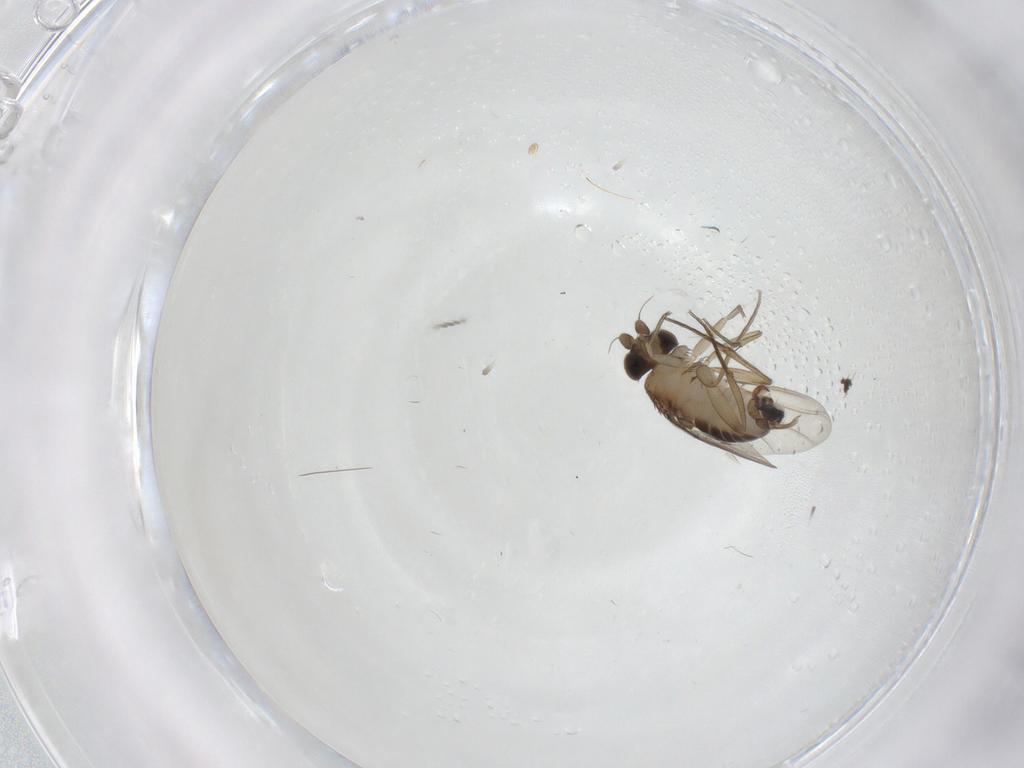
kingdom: Animalia
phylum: Arthropoda
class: Insecta
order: Diptera
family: Phoridae
